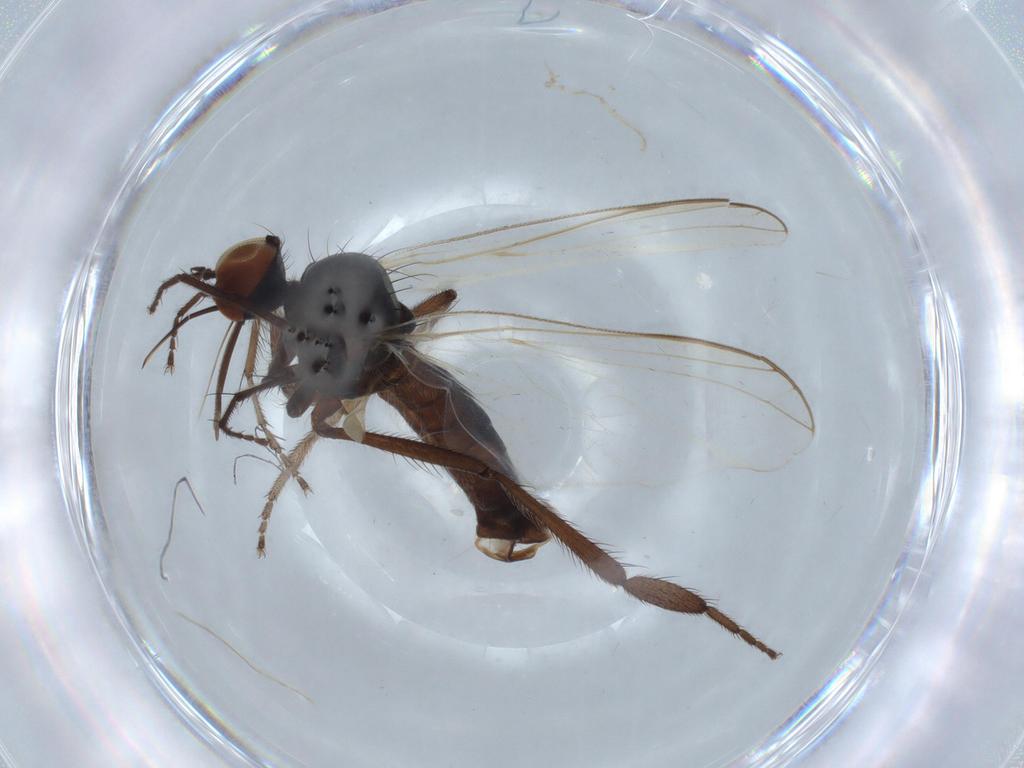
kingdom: Animalia
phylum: Arthropoda
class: Insecta
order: Diptera
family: Empididae
